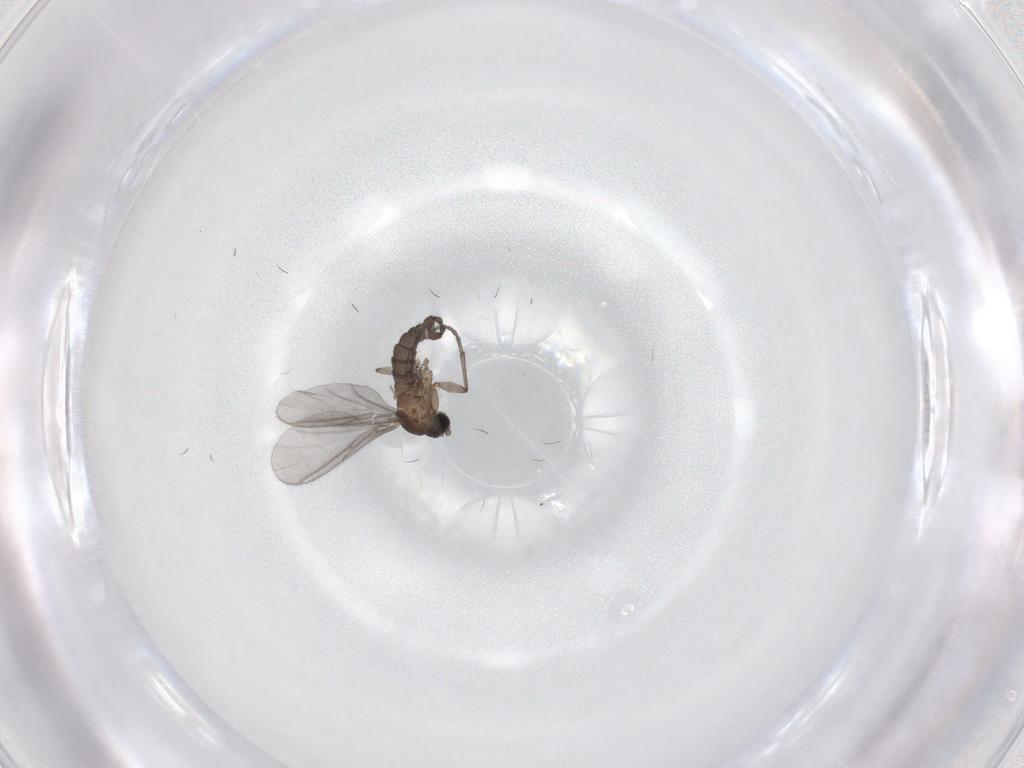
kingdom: Animalia
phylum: Arthropoda
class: Insecta
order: Diptera
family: Sciaridae
